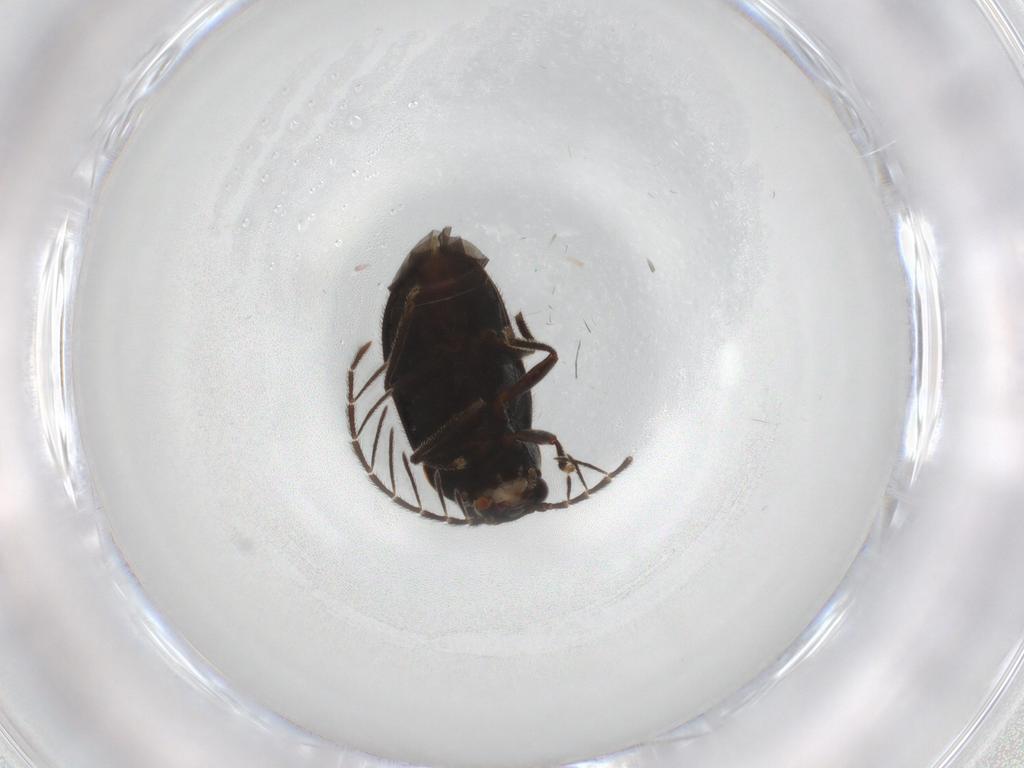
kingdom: Animalia
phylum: Arthropoda
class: Insecta
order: Coleoptera
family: Ptilodactylidae
